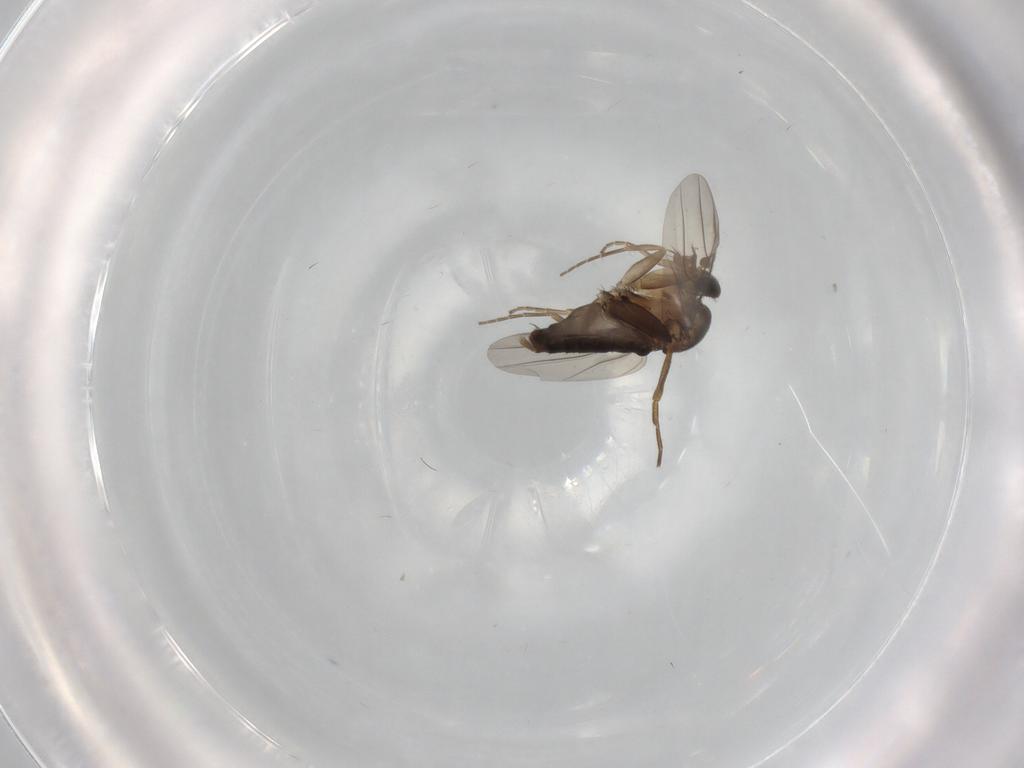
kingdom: Animalia
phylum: Arthropoda
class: Insecta
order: Diptera
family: Phoridae
